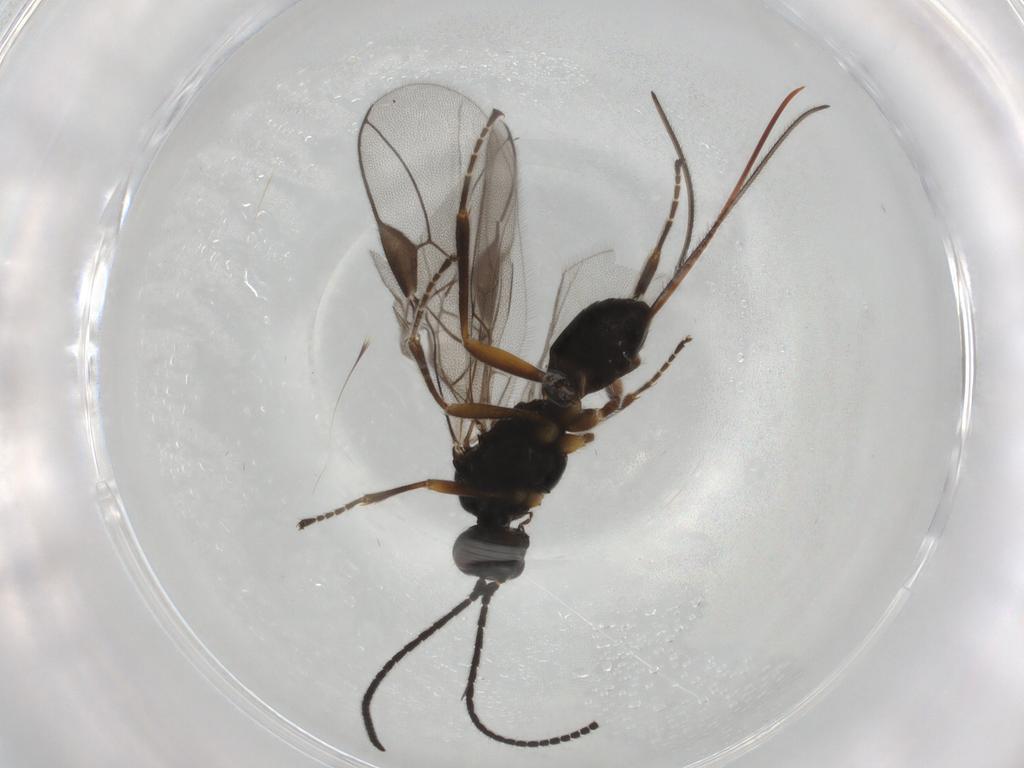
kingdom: Animalia
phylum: Arthropoda
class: Insecta
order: Hymenoptera
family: Braconidae
